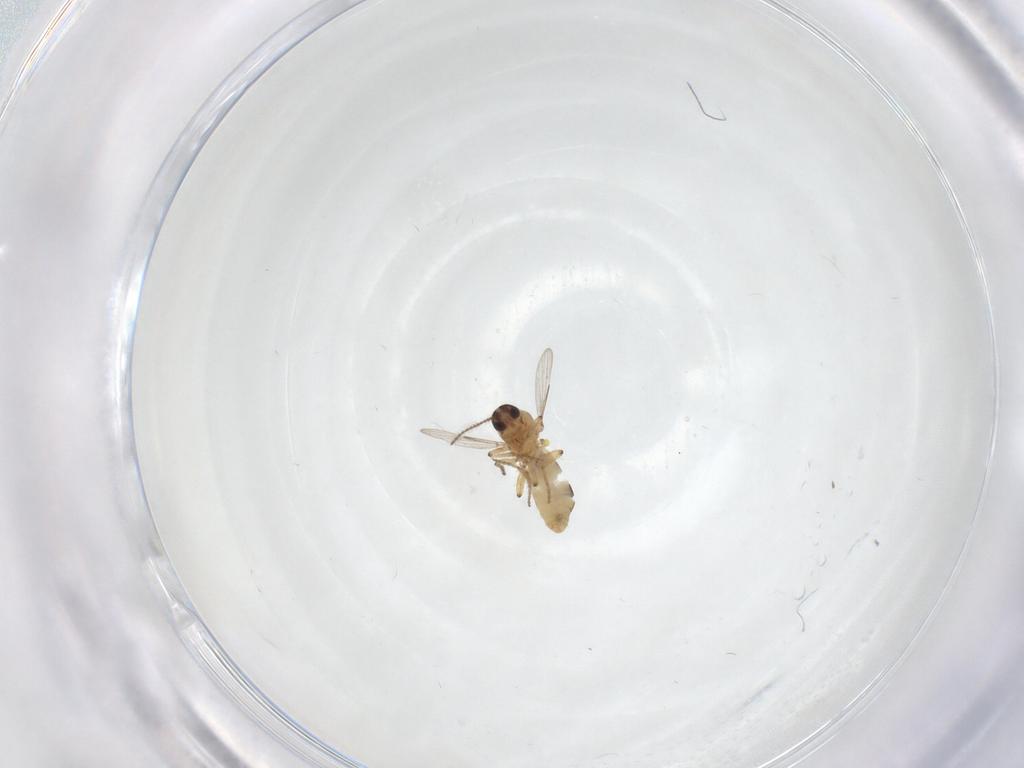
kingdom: Animalia
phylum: Arthropoda
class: Insecta
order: Diptera
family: Ceratopogonidae
